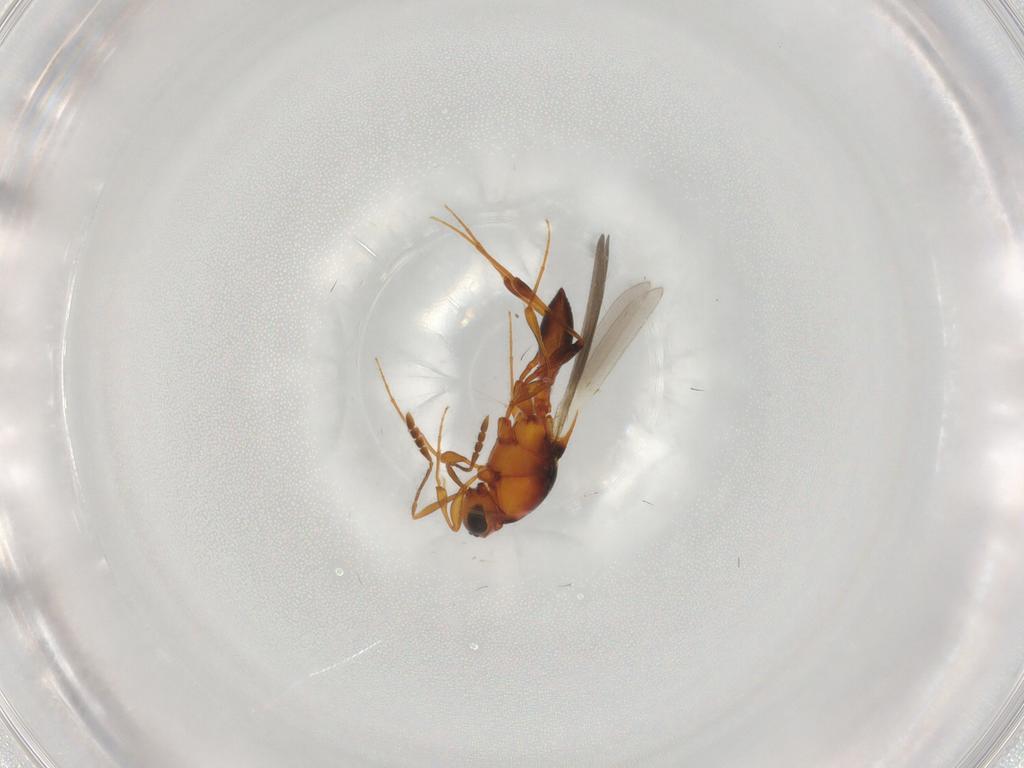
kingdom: Animalia
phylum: Arthropoda
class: Insecta
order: Hymenoptera
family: Platygastridae
